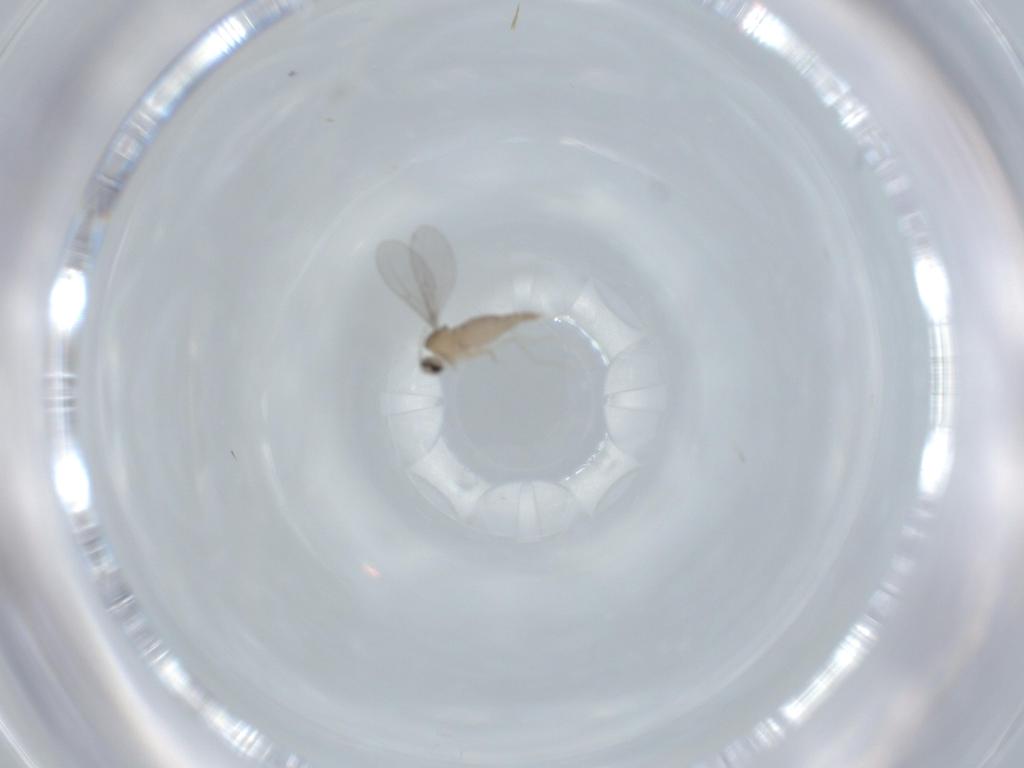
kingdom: Animalia
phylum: Arthropoda
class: Insecta
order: Diptera
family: Cecidomyiidae
